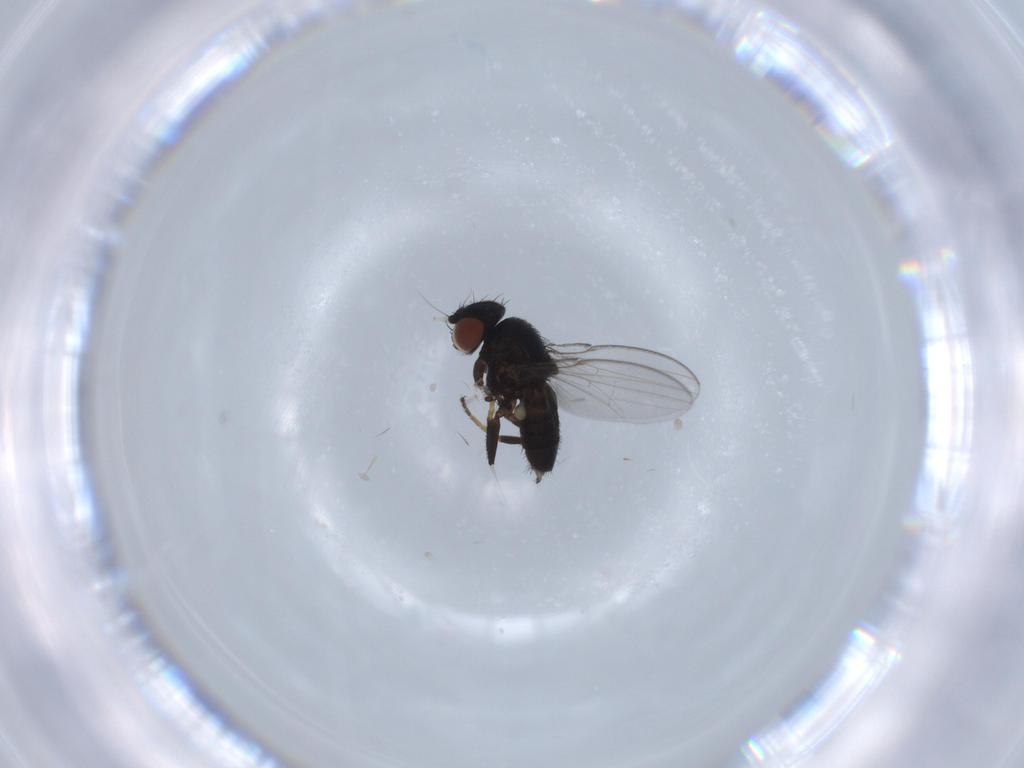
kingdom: Animalia
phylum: Arthropoda
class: Insecta
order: Diptera
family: Milichiidae
